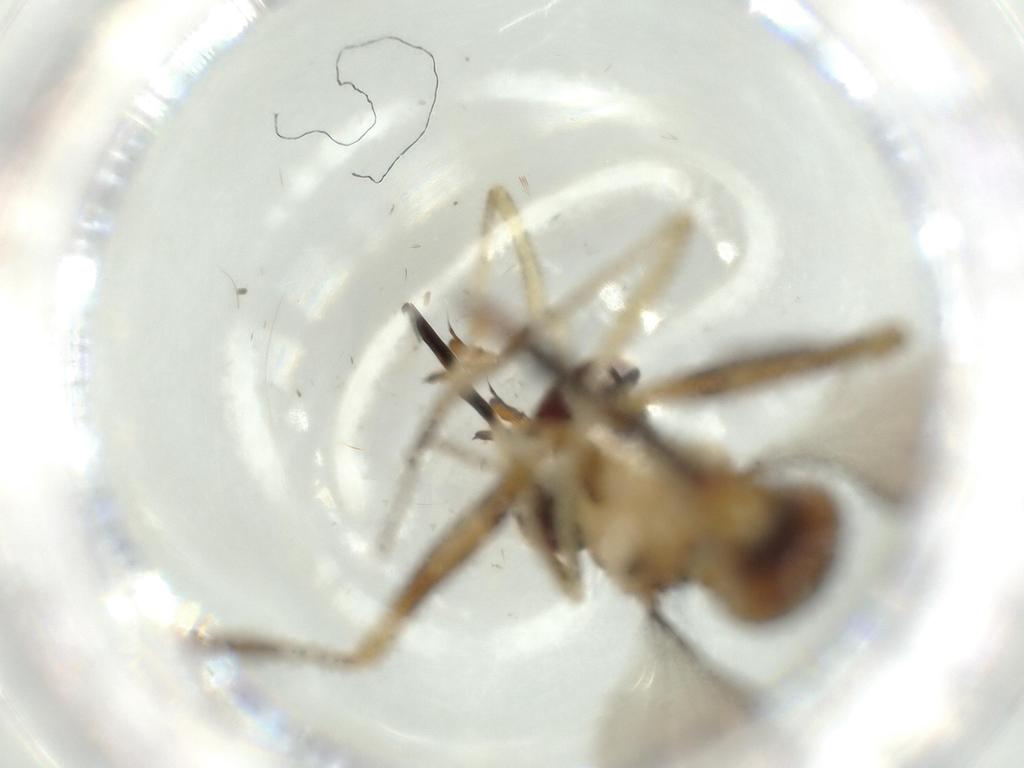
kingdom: Animalia
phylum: Arthropoda
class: Insecta
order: Diptera
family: Conopidae
